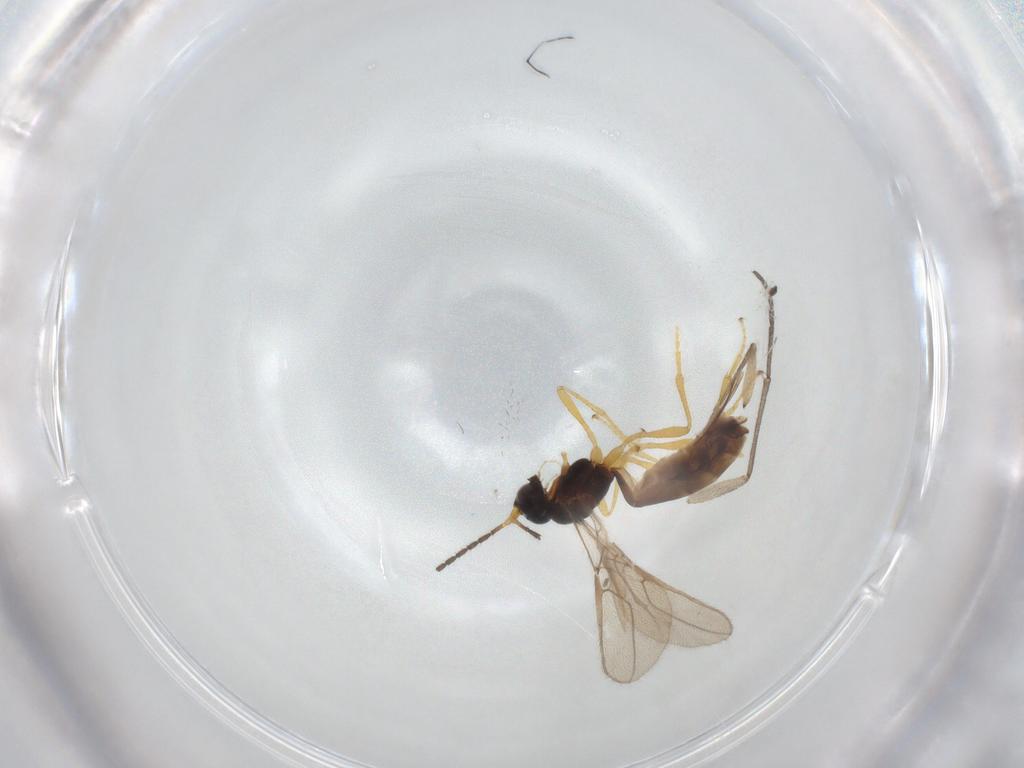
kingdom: Animalia
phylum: Arthropoda
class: Insecta
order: Hymenoptera
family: Braconidae
